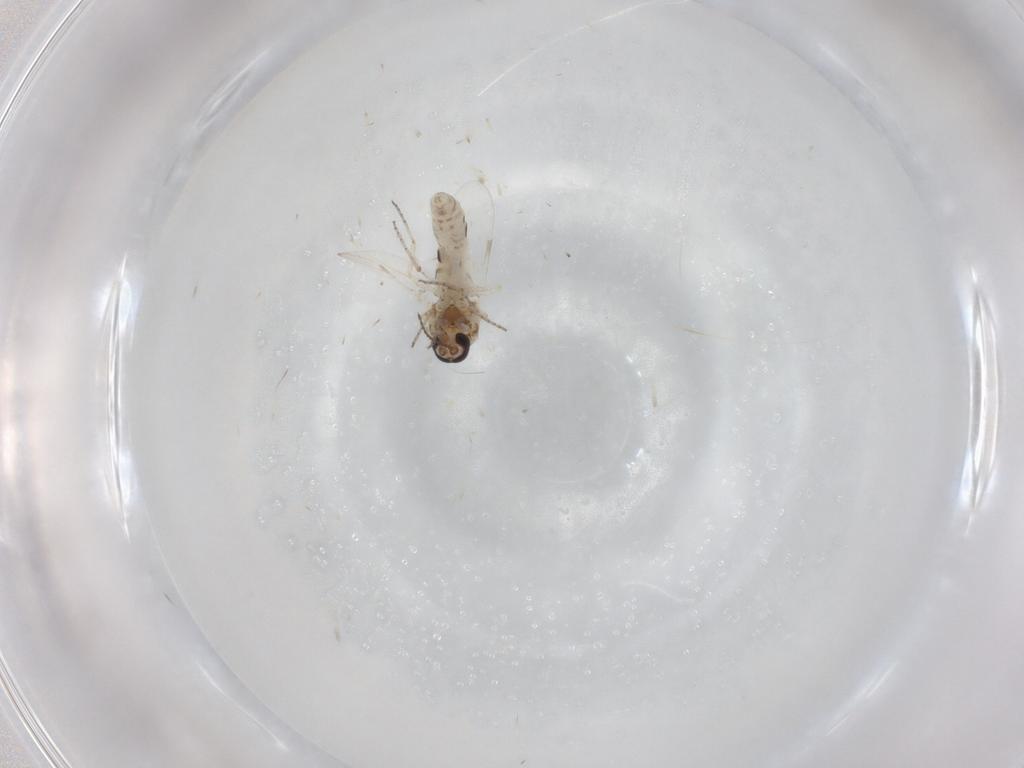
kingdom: Animalia
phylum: Arthropoda
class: Insecta
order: Diptera
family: Ceratopogonidae
